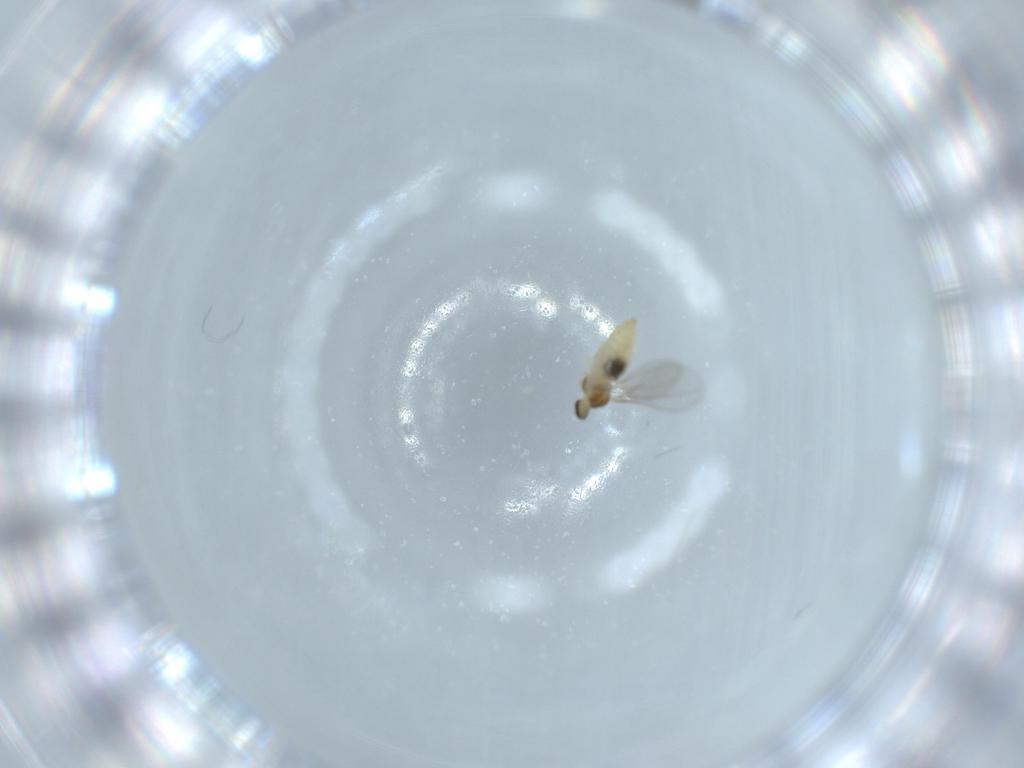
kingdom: Animalia
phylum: Arthropoda
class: Insecta
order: Diptera
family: Cecidomyiidae
